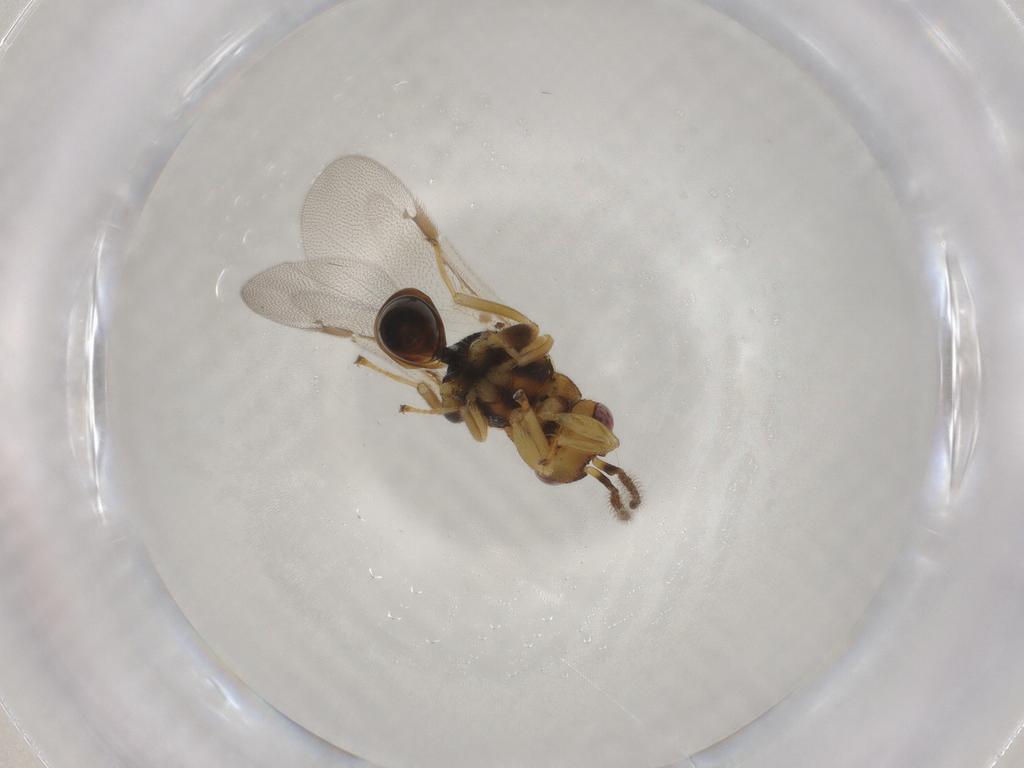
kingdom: Animalia
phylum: Arthropoda
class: Insecta
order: Hymenoptera
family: Eurytomidae
